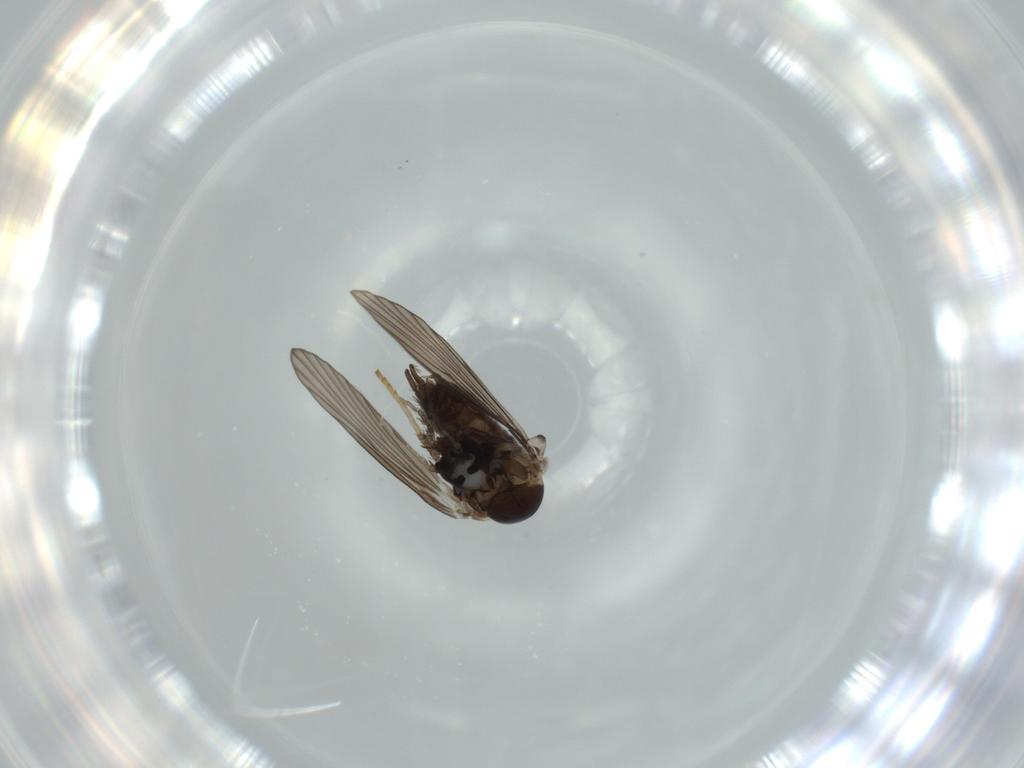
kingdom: Animalia
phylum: Arthropoda
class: Insecta
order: Diptera
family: Psychodidae
